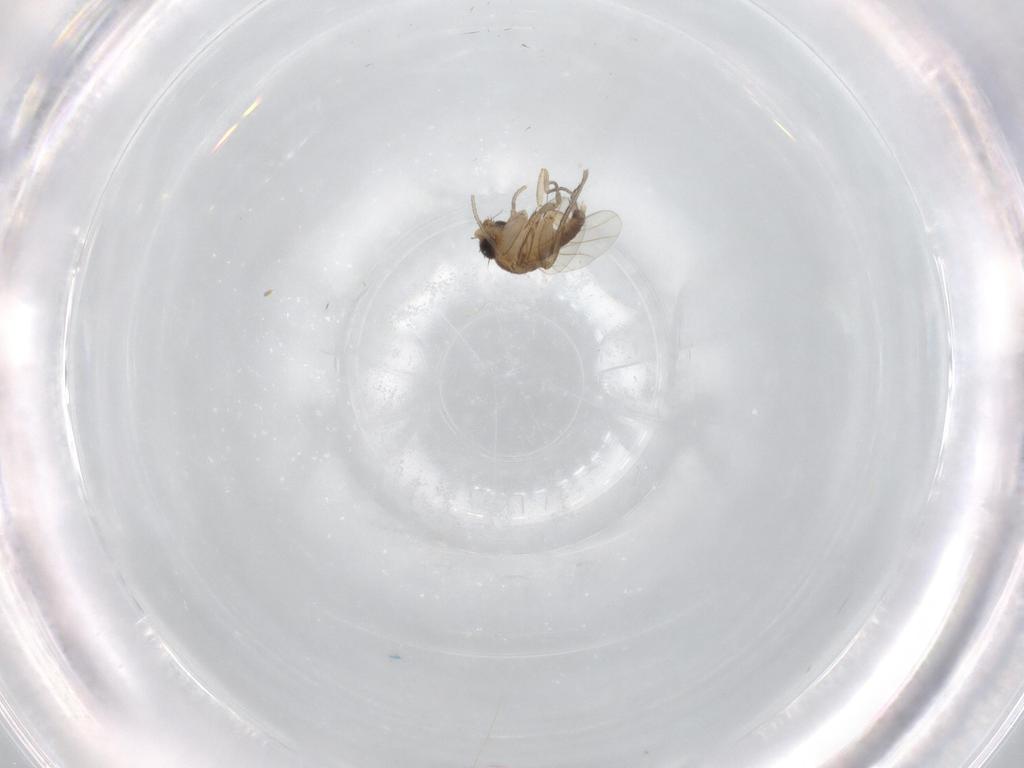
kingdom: Animalia
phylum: Arthropoda
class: Insecta
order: Diptera
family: Phoridae
